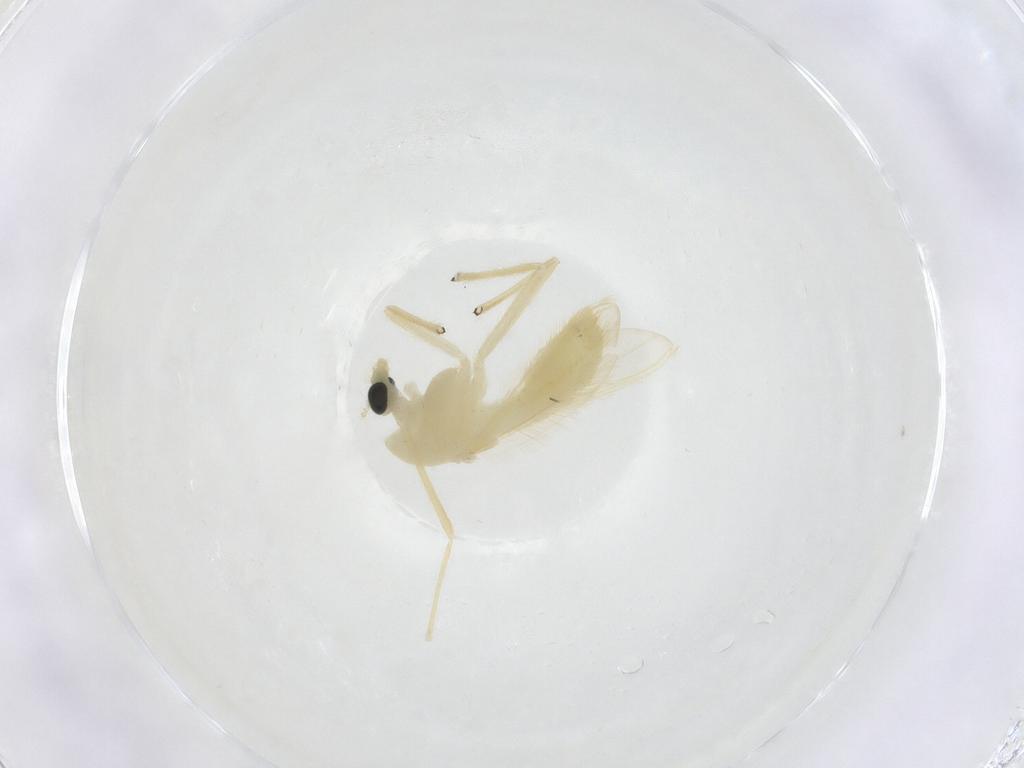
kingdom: Animalia
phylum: Arthropoda
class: Insecta
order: Diptera
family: Chironomidae
